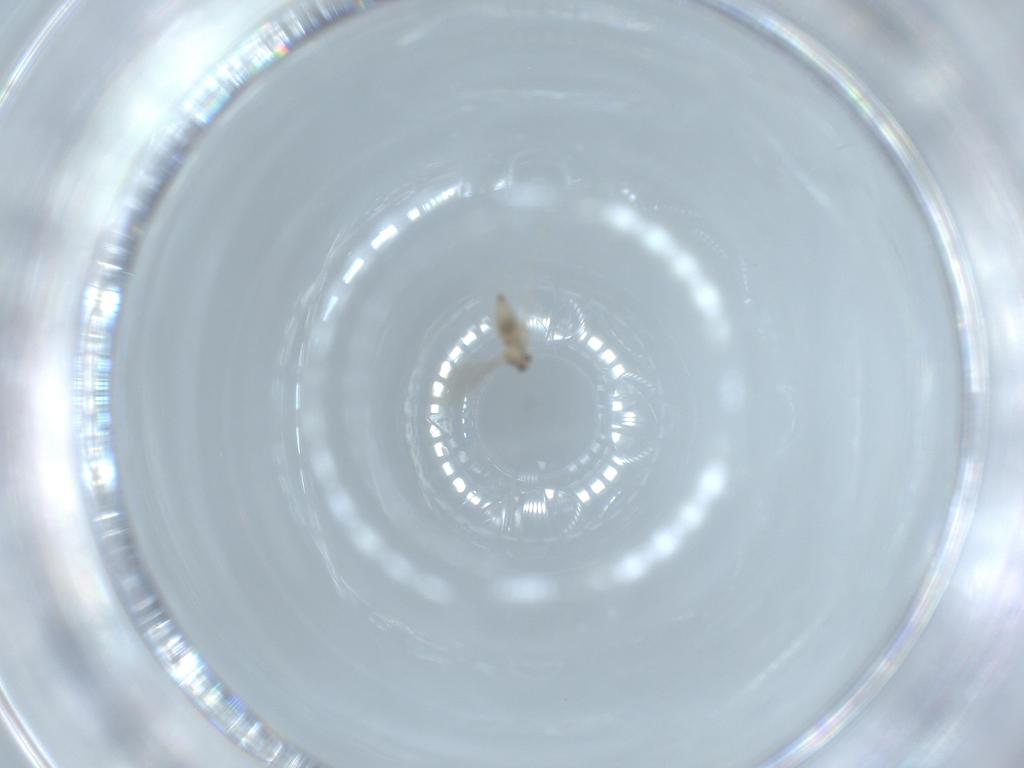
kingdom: Animalia
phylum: Arthropoda
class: Insecta
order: Diptera
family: Cecidomyiidae
